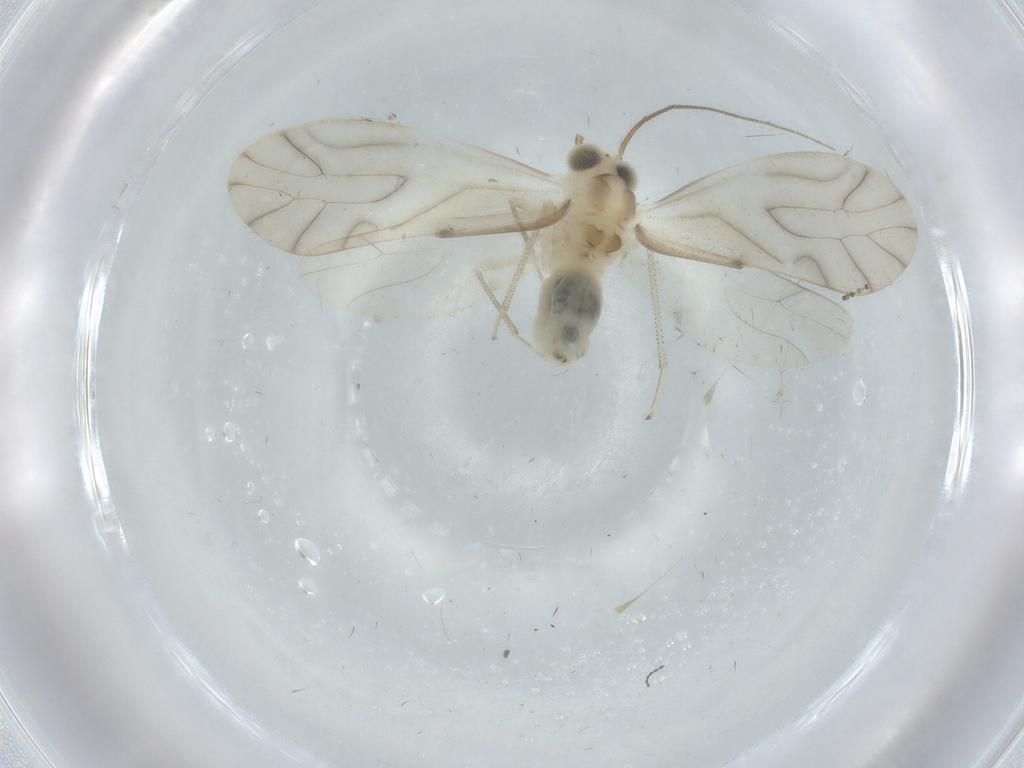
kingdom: Animalia
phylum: Arthropoda
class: Insecta
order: Psocodea
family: Caeciliusidae
